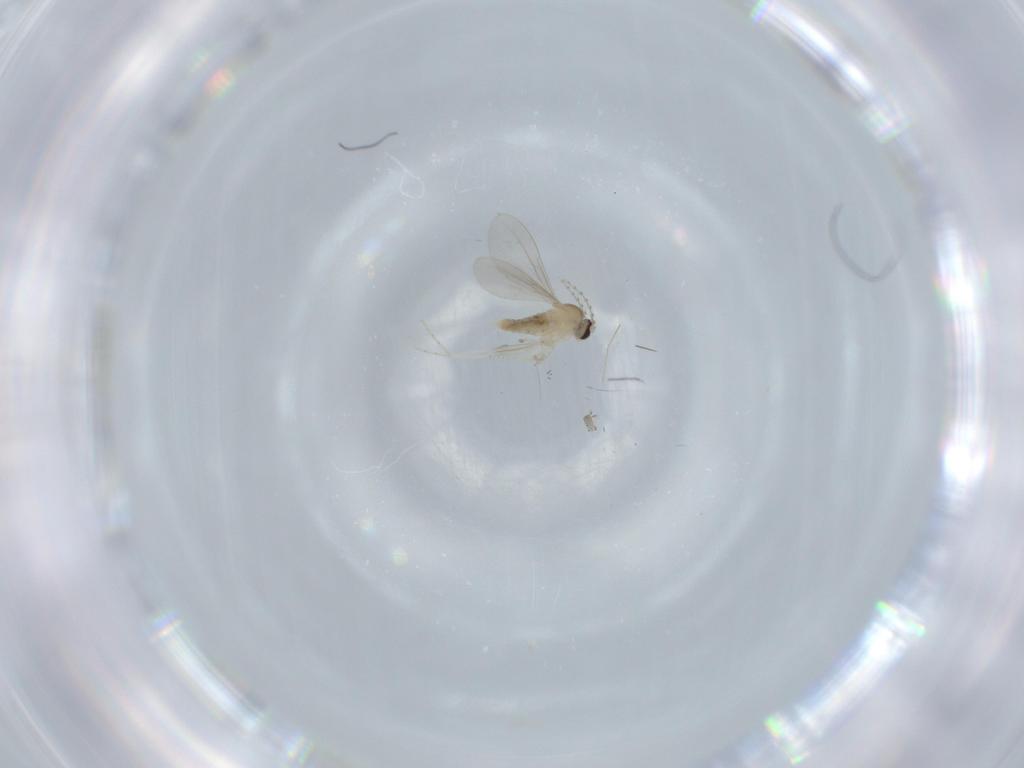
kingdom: Animalia
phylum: Arthropoda
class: Insecta
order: Diptera
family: Cecidomyiidae
